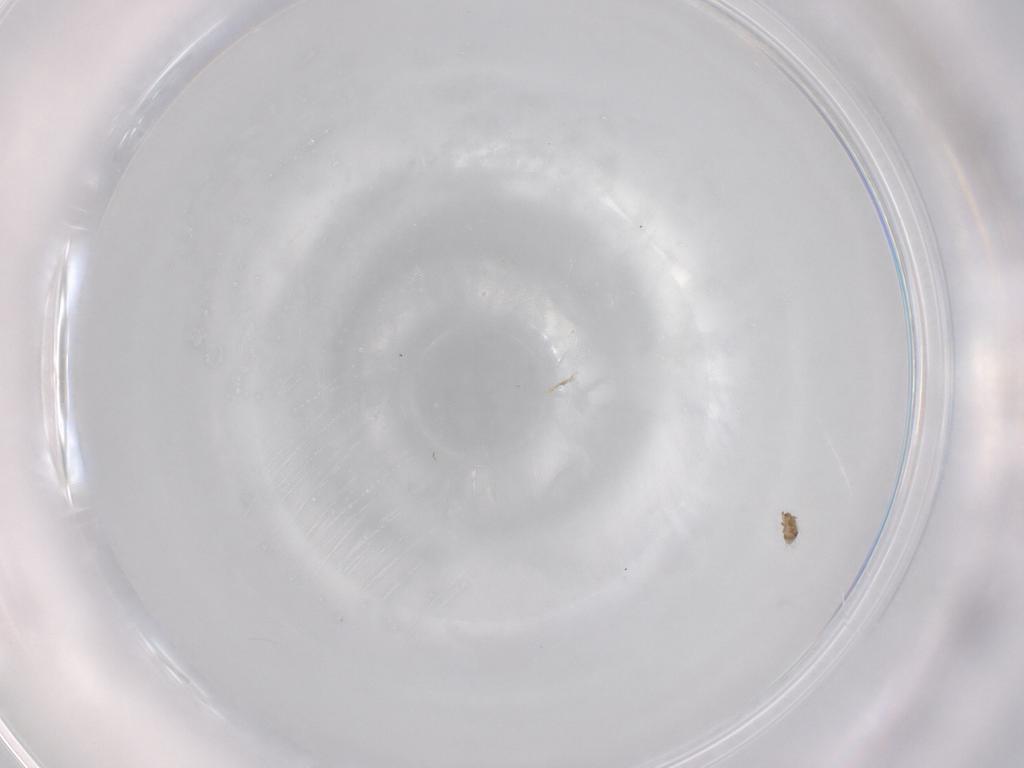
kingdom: Animalia
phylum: Arthropoda
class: Arachnida
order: Sarcoptiformes
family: Humerobatidae
